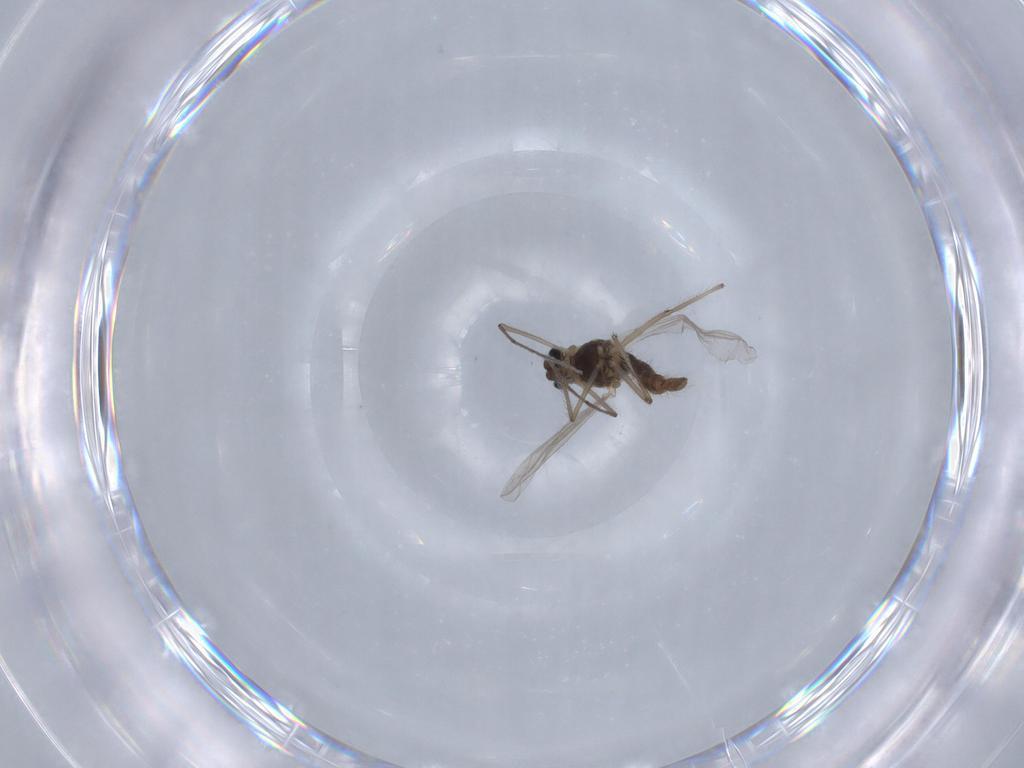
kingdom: Animalia
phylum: Arthropoda
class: Insecta
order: Diptera
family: Chironomidae
